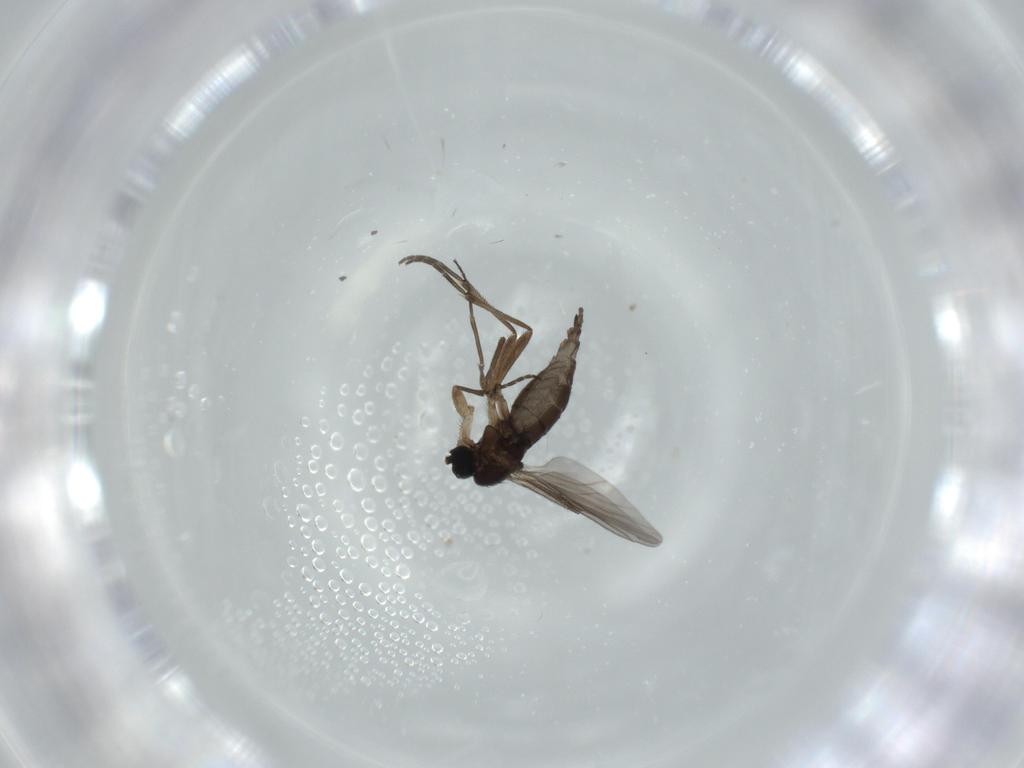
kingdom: Animalia
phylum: Arthropoda
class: Insecta
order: Diptera
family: Sciaridae
